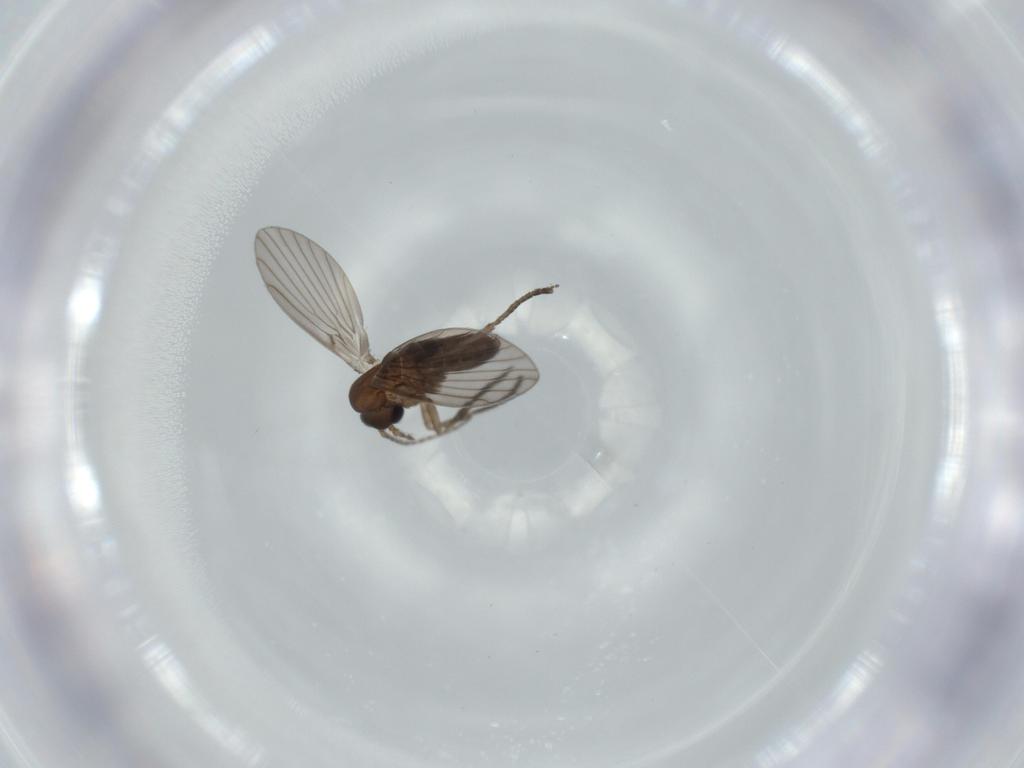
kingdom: Animalia
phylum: Arthropoda
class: Insecta
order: Diptera
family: Psychodidae
